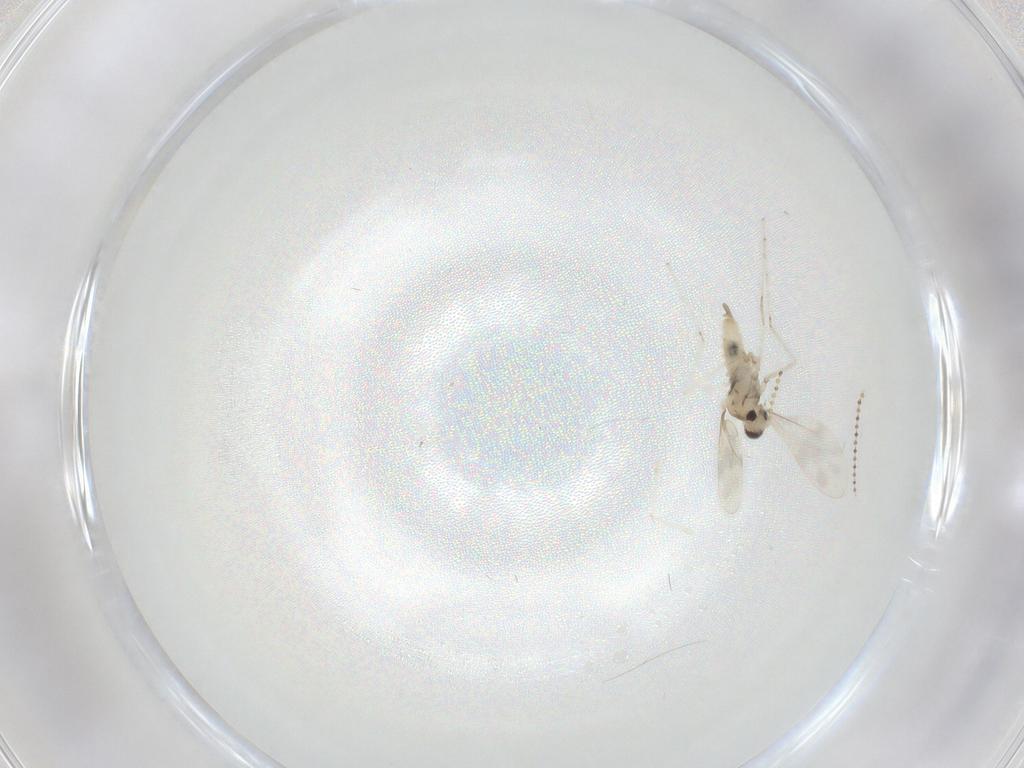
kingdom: Animalia
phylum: Arthropoda
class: Insecta
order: Diptera
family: Cecidomyiidae
